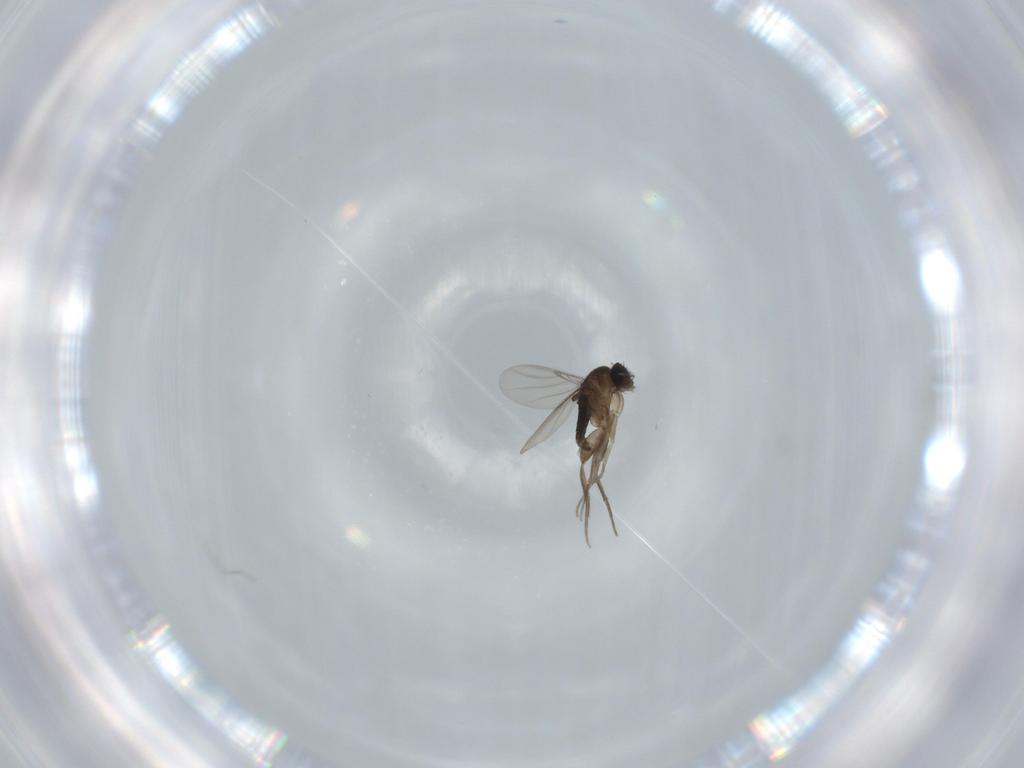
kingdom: Animalia
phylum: Arthropoda
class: Insecta
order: Diptera
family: Phoridae
